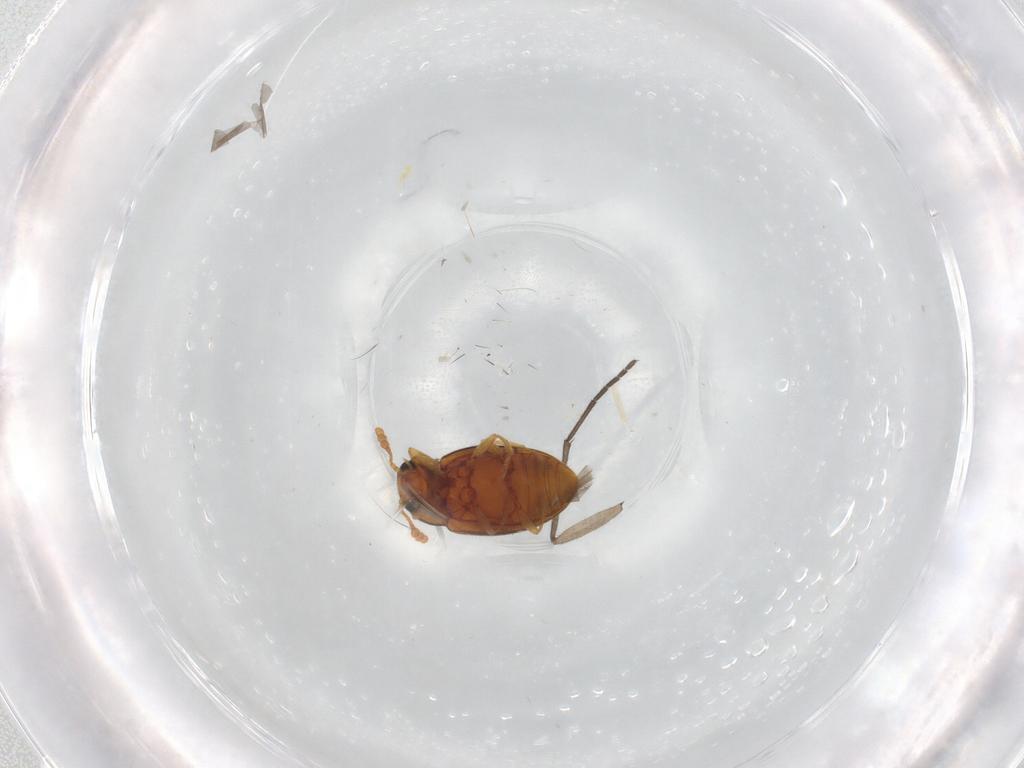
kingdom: Animalia
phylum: Arthropoda
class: Insecta
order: Coleoptera
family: Erotylidae
